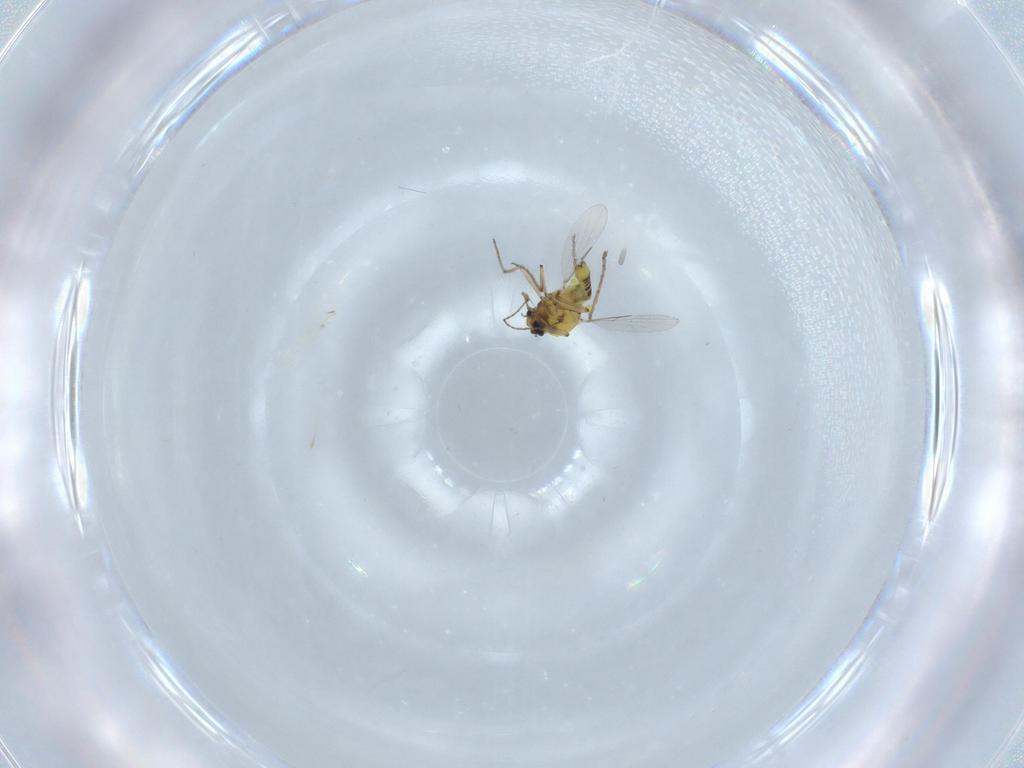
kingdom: Animalia
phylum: Arthropoda
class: Insecta
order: Diptera
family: Ceratopogonidae
